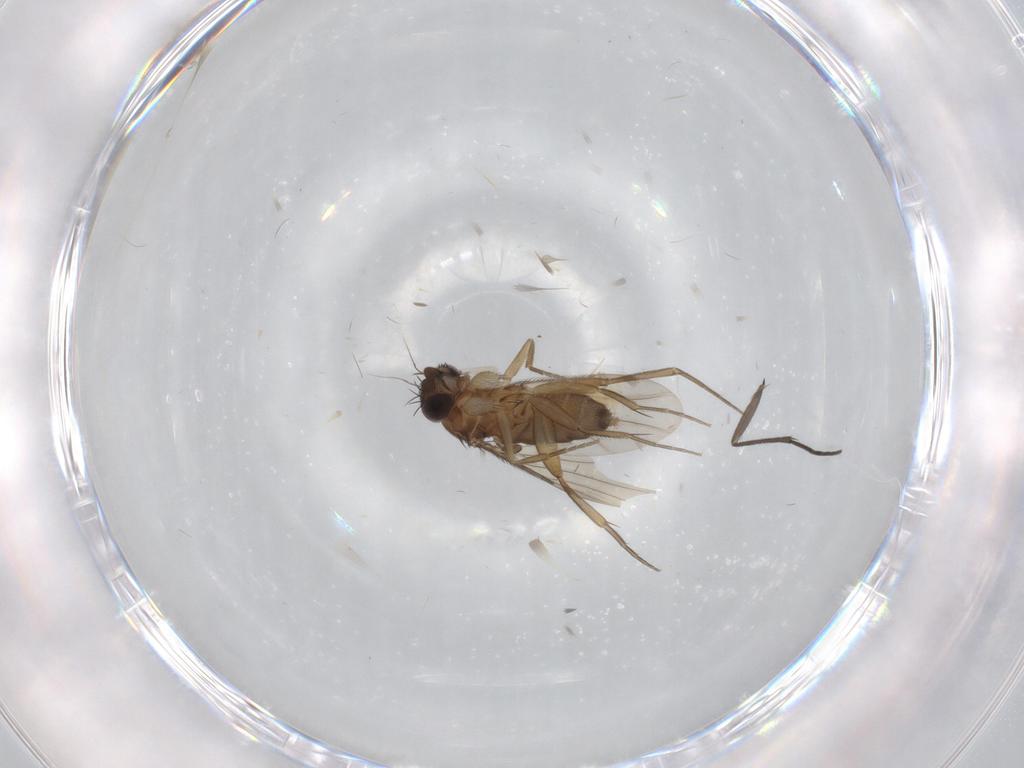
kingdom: Animalia
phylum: Arthropoda
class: Insecta
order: Diptera
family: Phoridae
